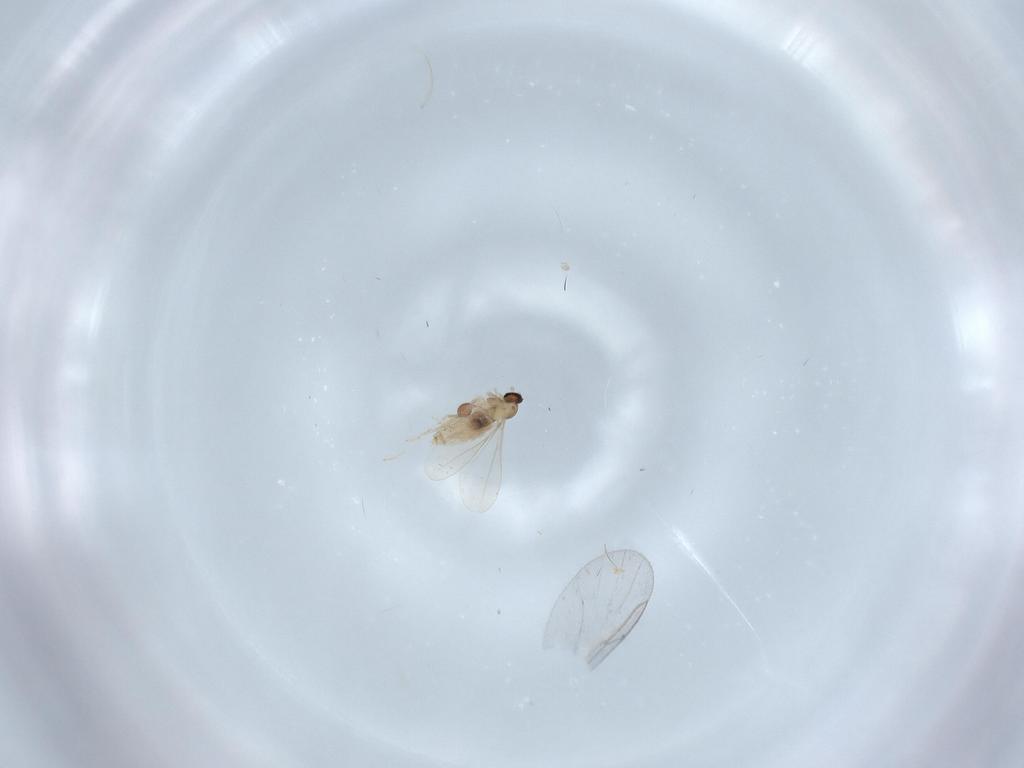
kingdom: Animalia
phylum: Arthropoda
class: Insecta
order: Diptera
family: Cecidomyiidae
